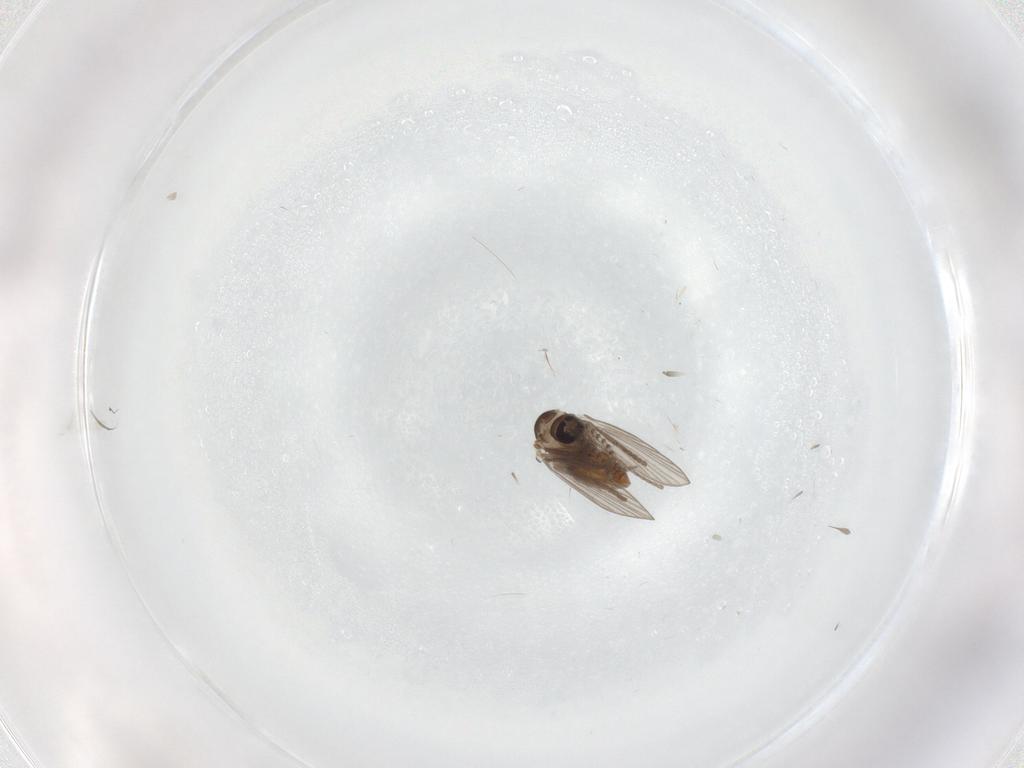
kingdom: Animalia
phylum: Arthropoda
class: Insecta
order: Diptera
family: Psychodidae
